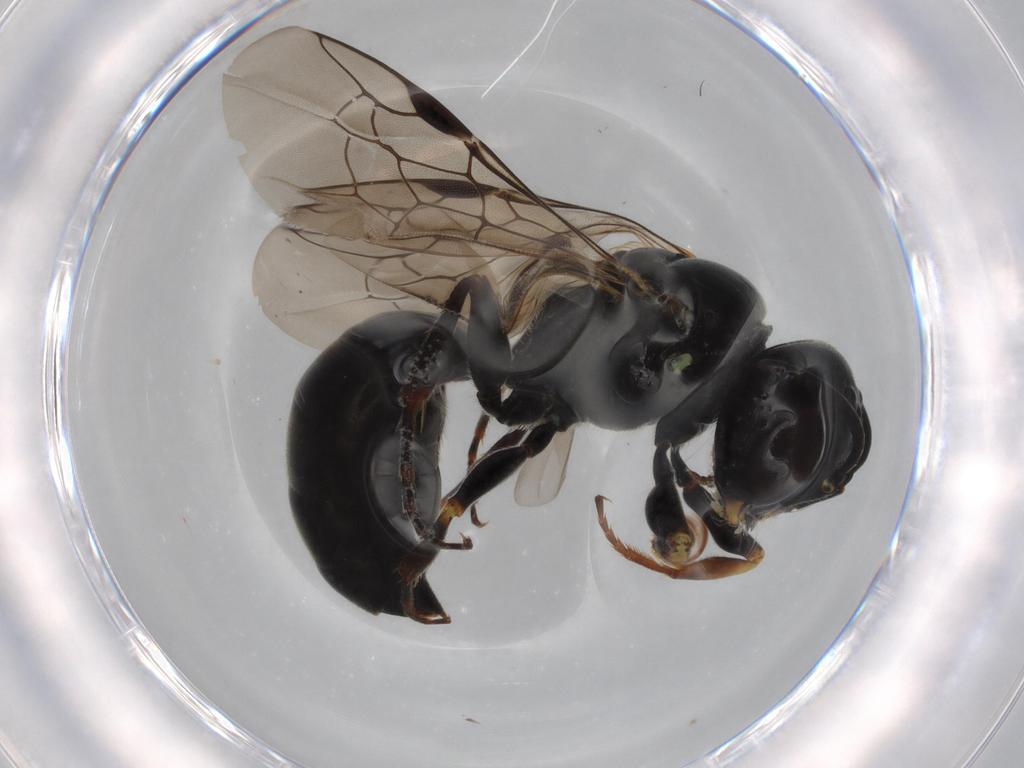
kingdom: Animalia
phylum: Arthropoda
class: Insecta
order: Hymenoptera
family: Crabronidae
